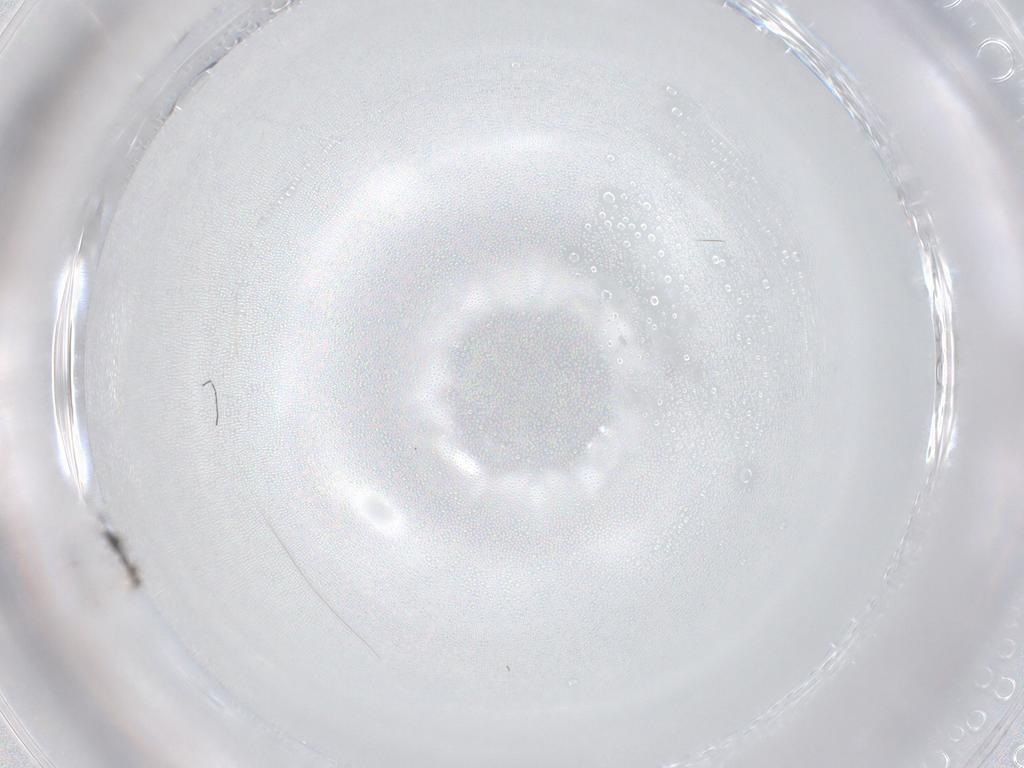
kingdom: Animalia
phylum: Arthropoda
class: Insecta
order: Hymenoptera
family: Scelionidae
